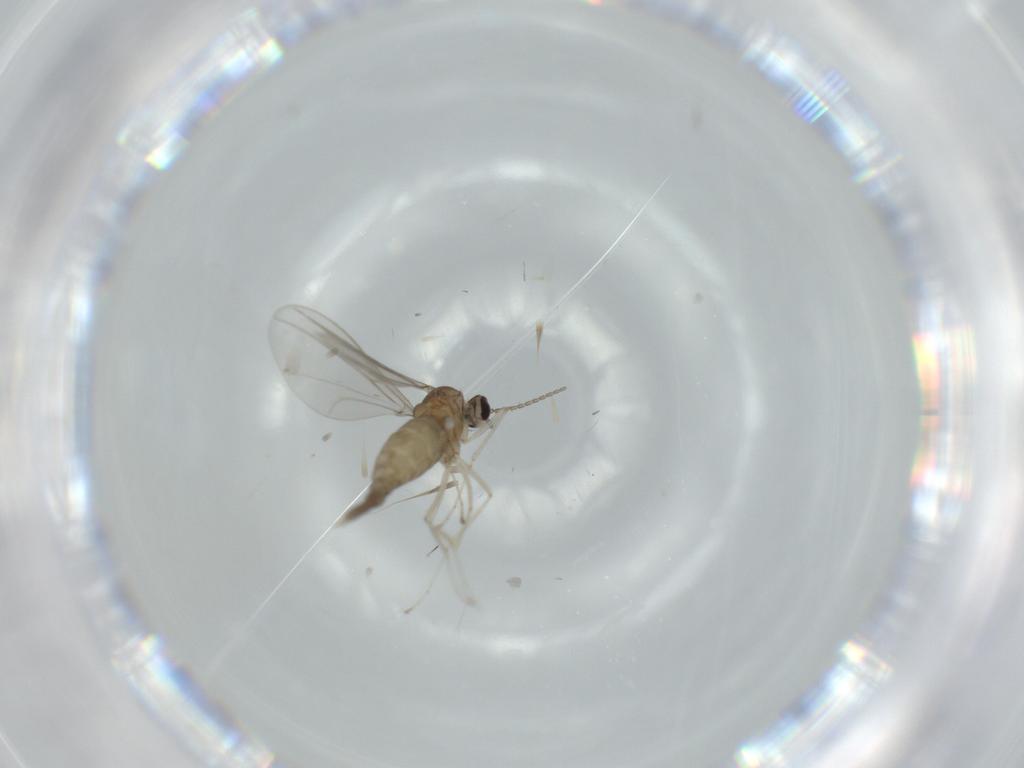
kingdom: Animalia
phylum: Arthropoda
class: Insecta
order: Diptera
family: Cecidomyiidae
